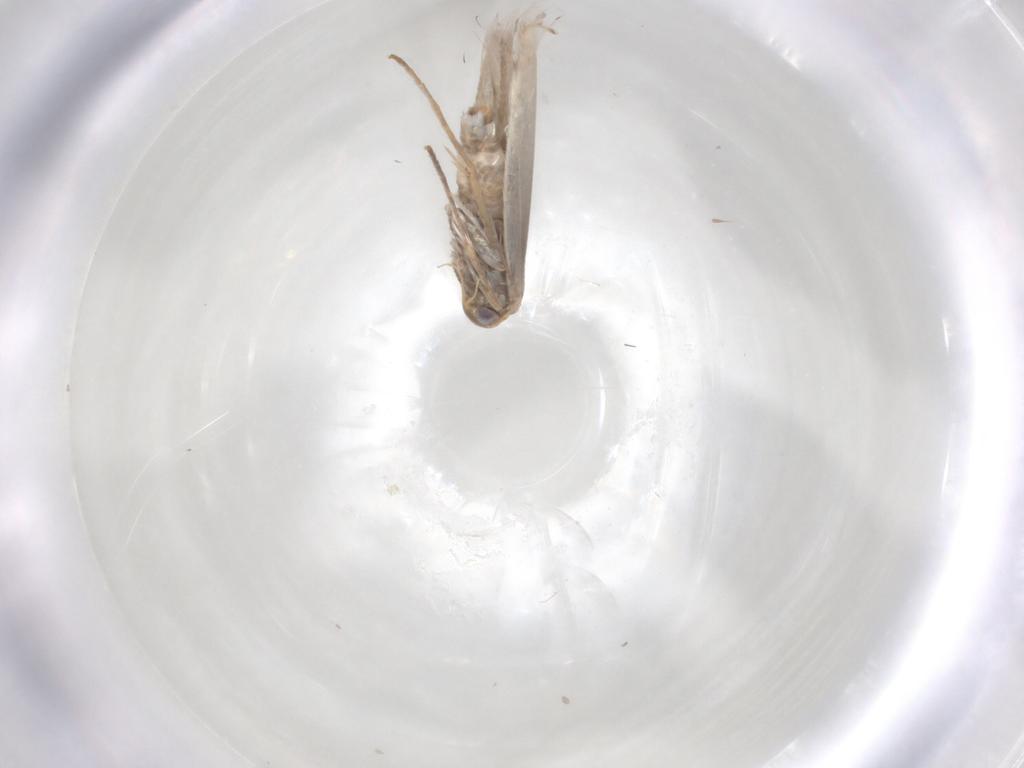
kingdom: Animalia
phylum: Arthropoda
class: Insecta
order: Lepidoptera
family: Gracillariidae
